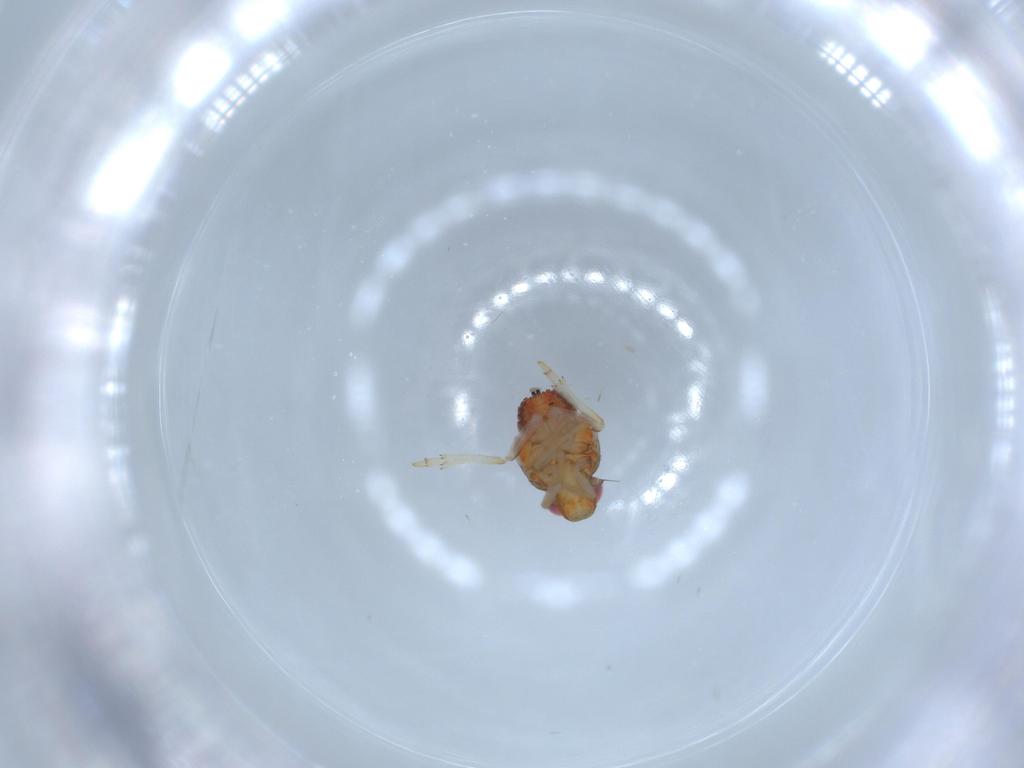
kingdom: Animalia
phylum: Arthropoda
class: Insecta
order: Hemiptera
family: Issidae
